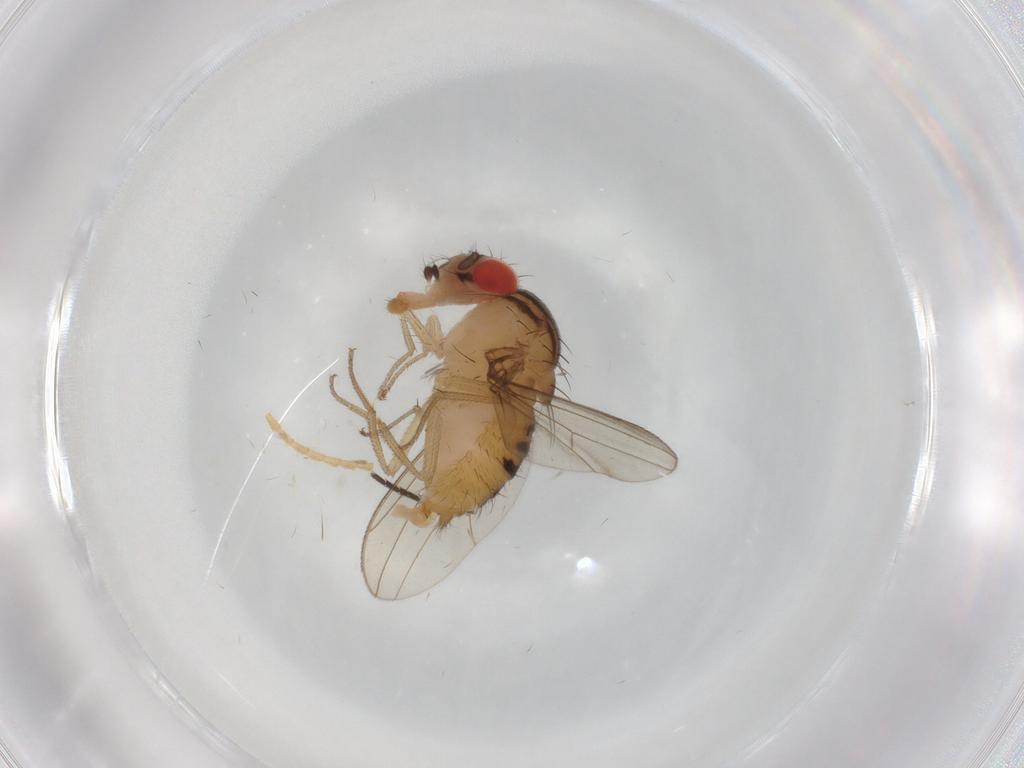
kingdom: Animalia
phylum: Arthropoda
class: Insecta
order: Diptera
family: Drosophilidae
